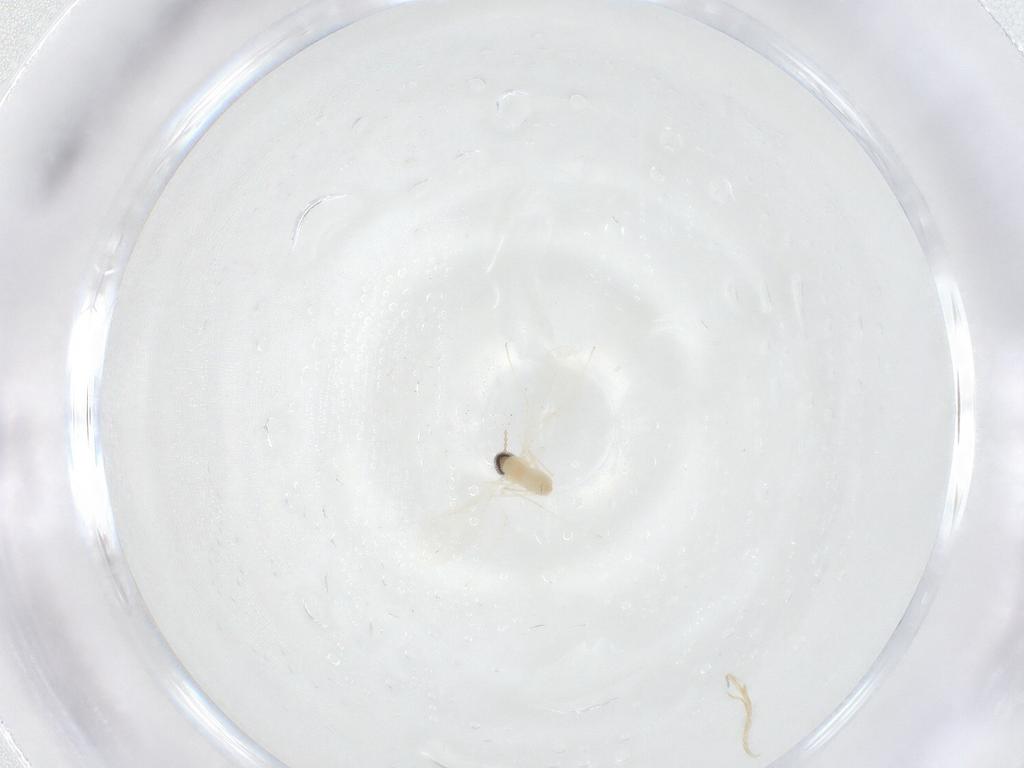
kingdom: Animalia
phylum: Arthropoda
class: Insecta
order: Diptera
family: Cecidomyiidae
